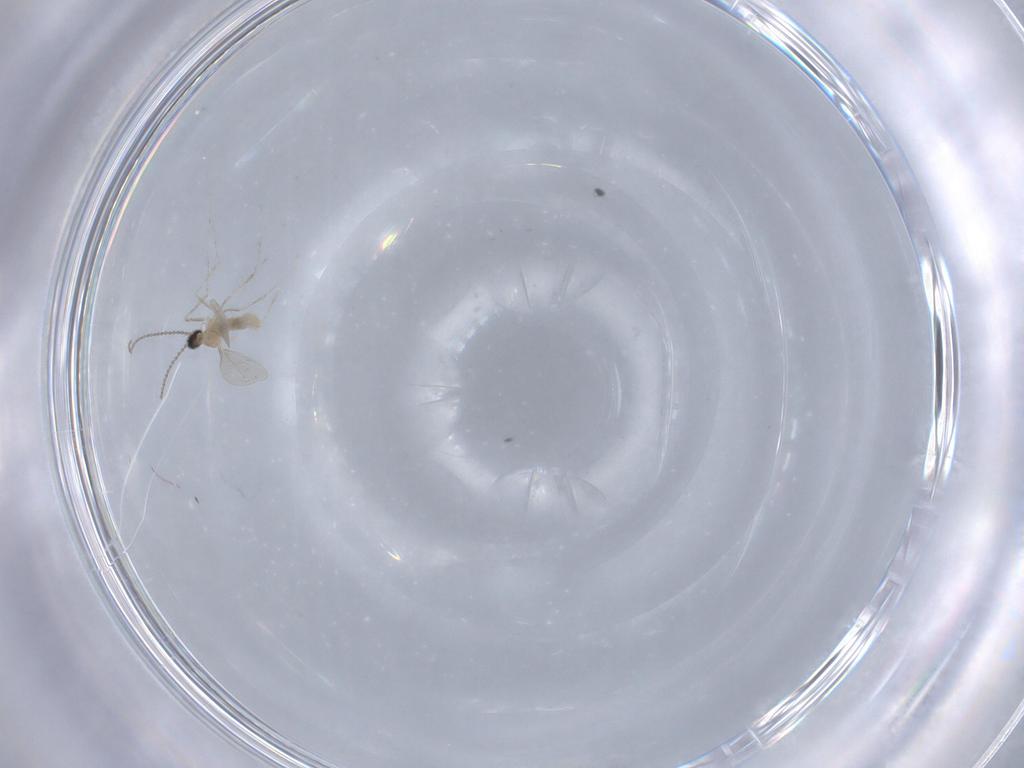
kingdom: Animalia
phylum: Arthropoda
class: Insecta
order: Diptera
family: Cecidomyiidae
